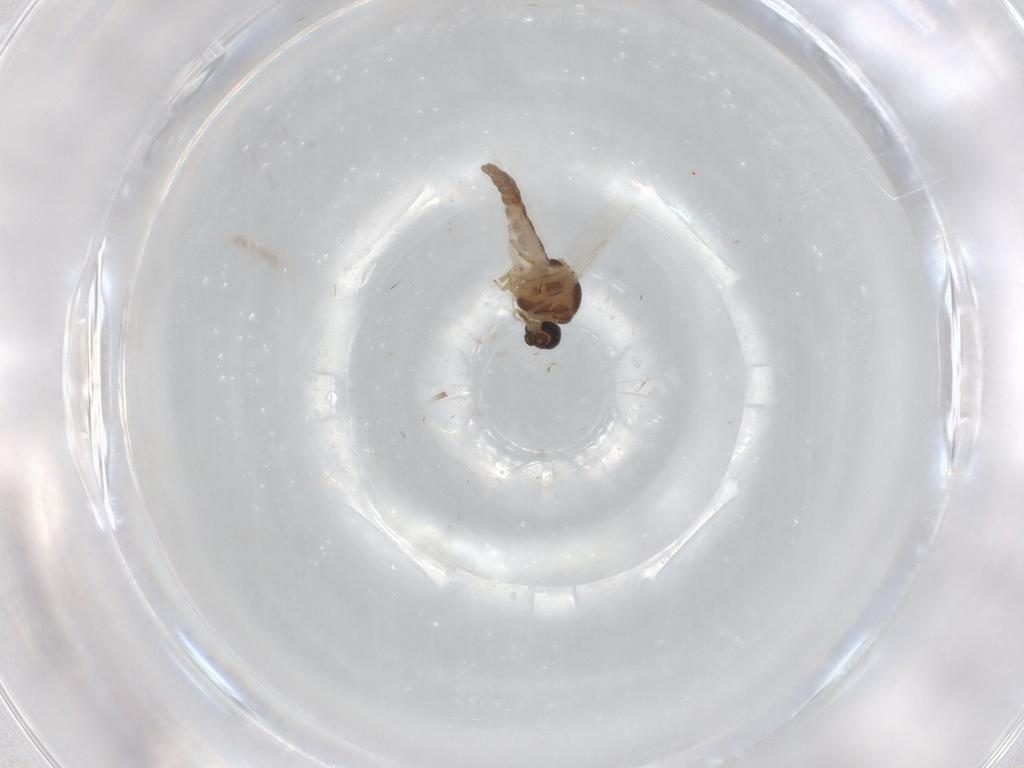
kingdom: Animalia
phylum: Arthropoda
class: Insecta
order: Diptera
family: Ceratopogonidae
